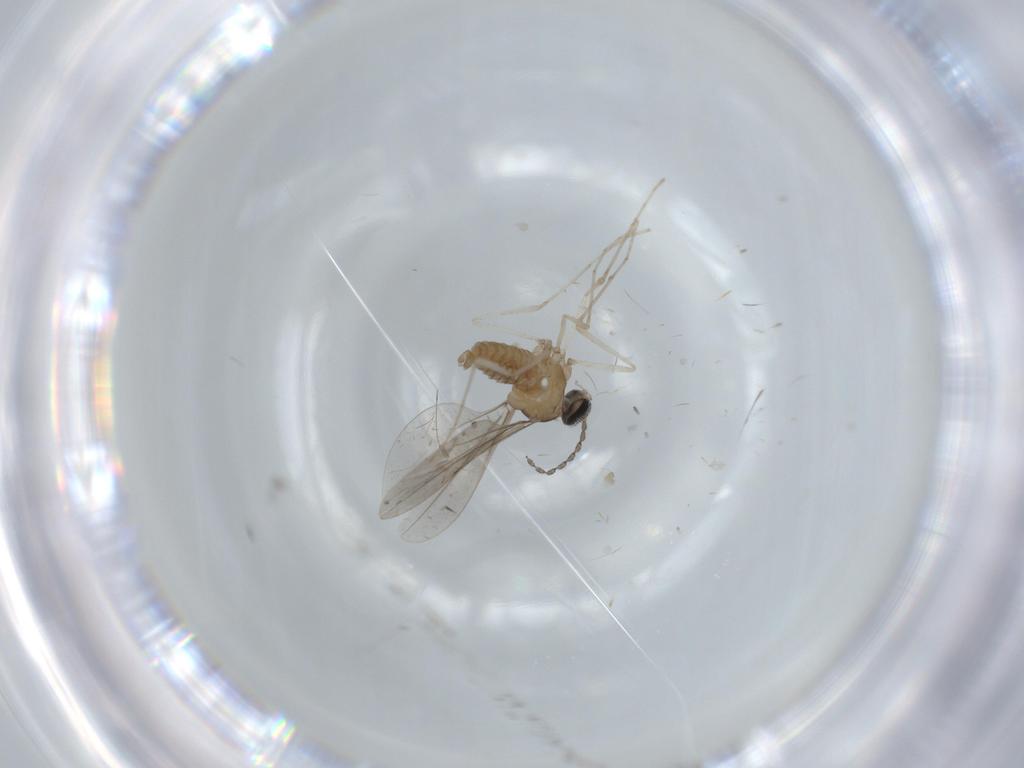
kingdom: Animalia
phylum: Arthropoda
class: Insecta
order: Diptera
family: Cecidomyiidae
